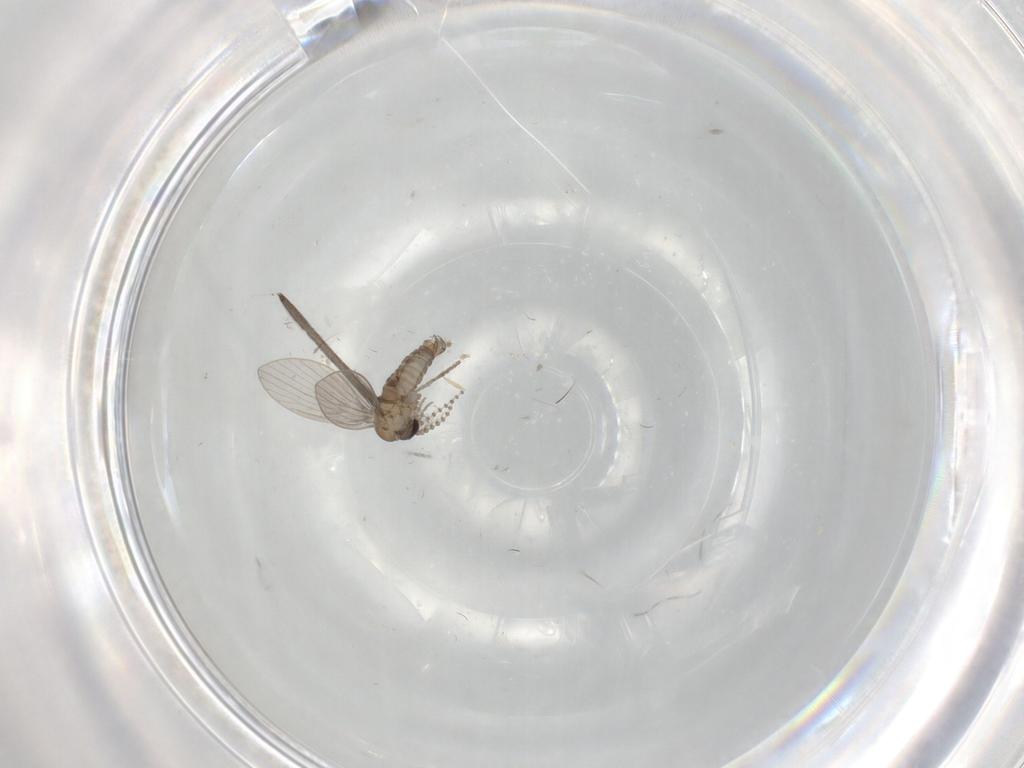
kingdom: Animalia
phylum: Arthropoda
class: Insecta
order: Diptera
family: Psychodidae
